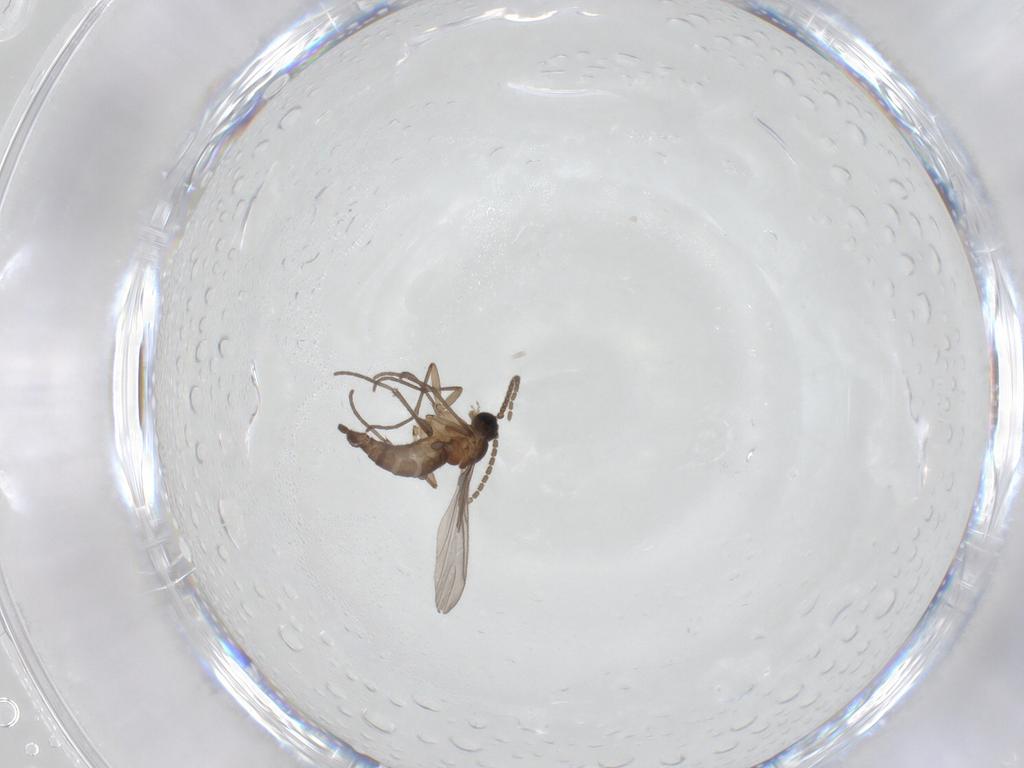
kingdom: Animalia
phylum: Arthropoda
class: Insecta
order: Diptera
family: Sciaridae
